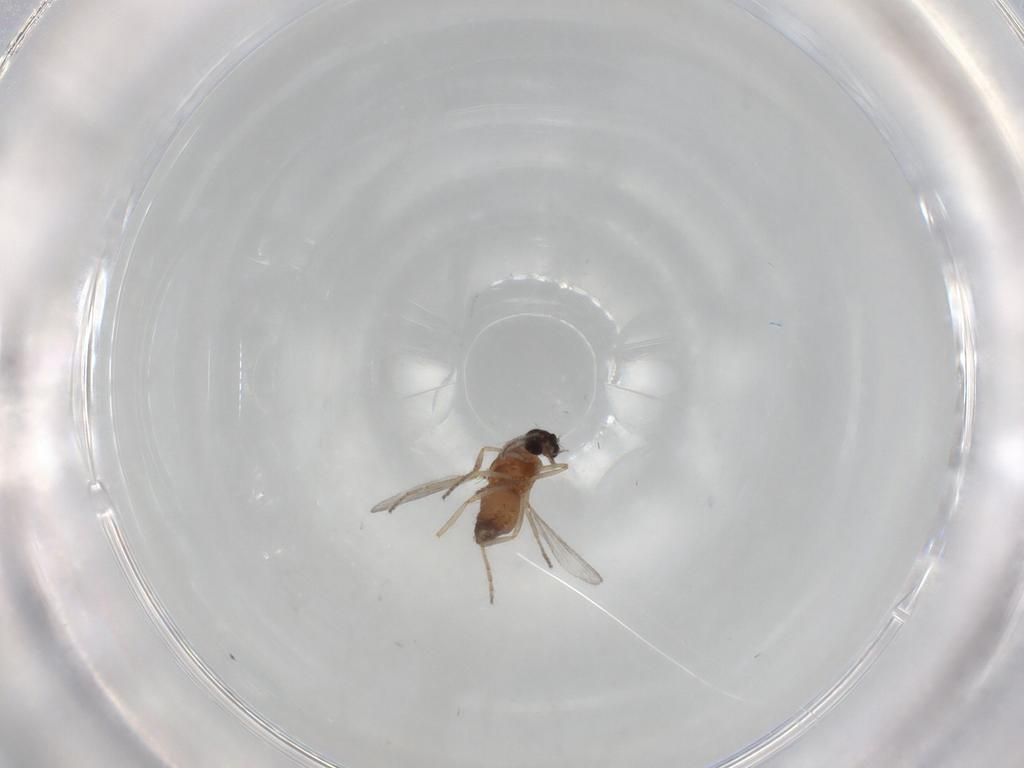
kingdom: Animalia
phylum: Arthropoda
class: Insecta
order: Diptera
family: Ceratopogonidae
